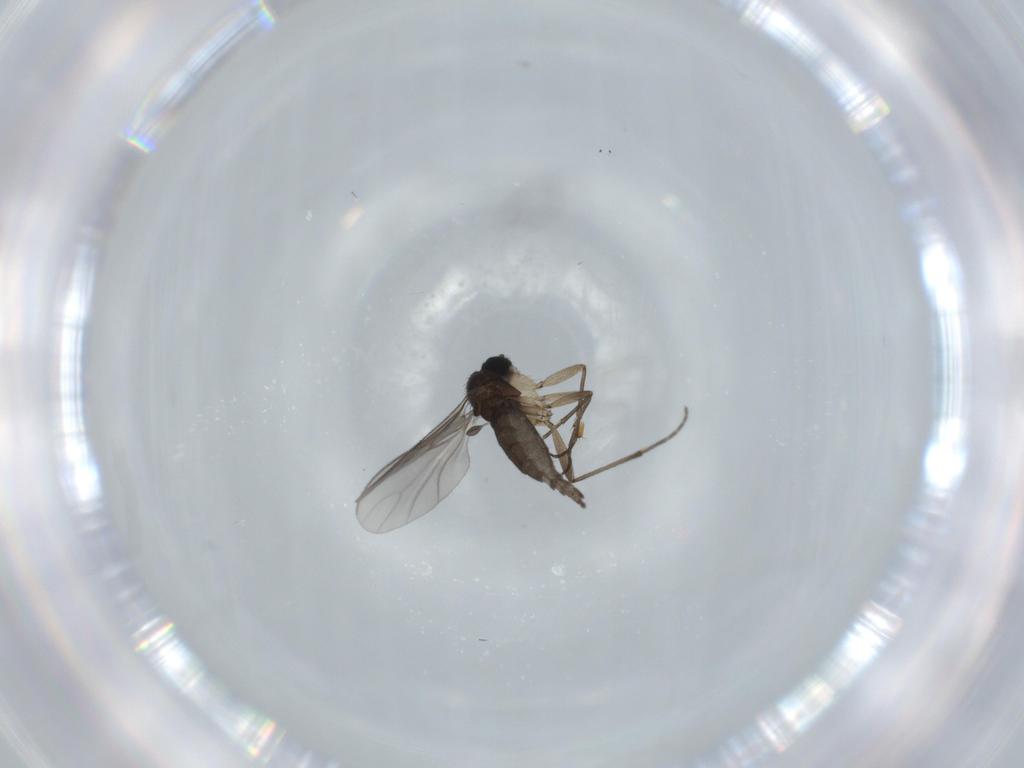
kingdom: Animalia
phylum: Arthropoda
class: Insecta
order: Diptera
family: Sciaridae
